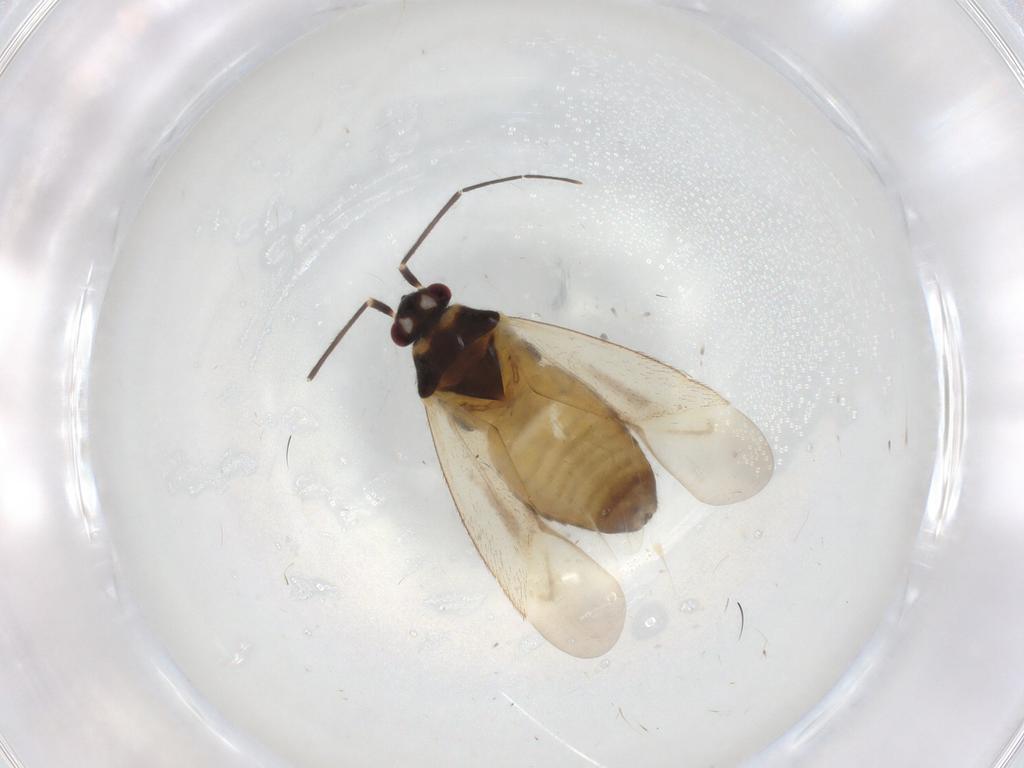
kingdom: Animalia
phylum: Arthropoda
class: Insecta
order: Hemiptera
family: Miridae
